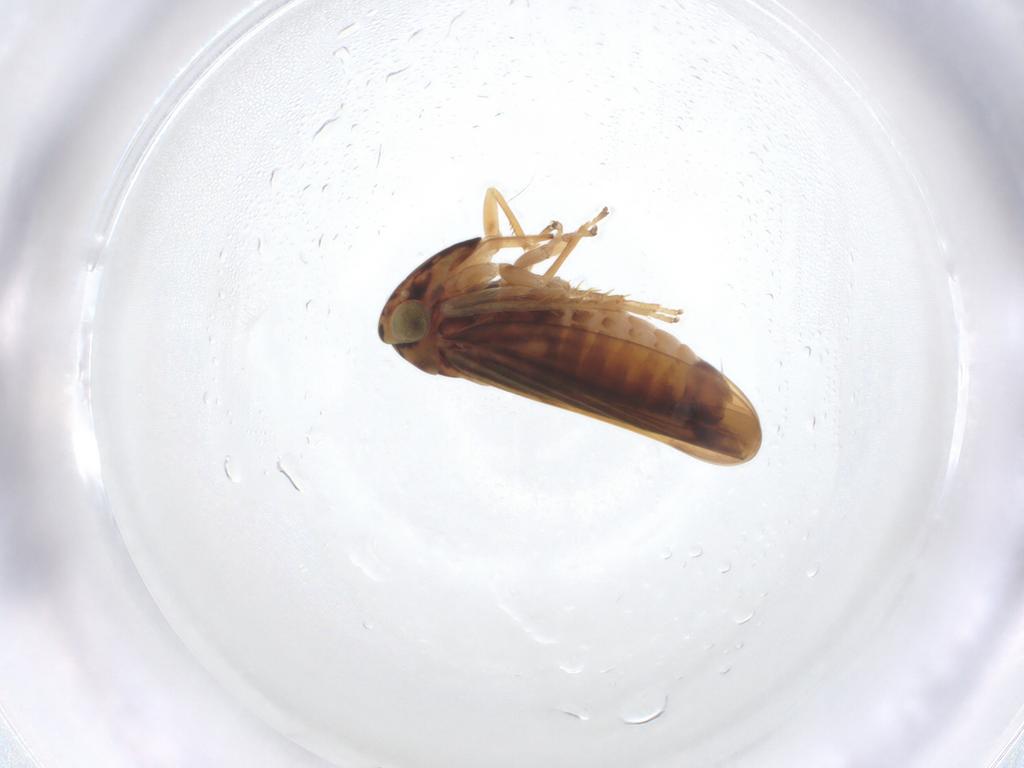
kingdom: Animalia
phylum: Arthropoda
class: Insecta
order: Hemiptera
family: Cicadellidae
